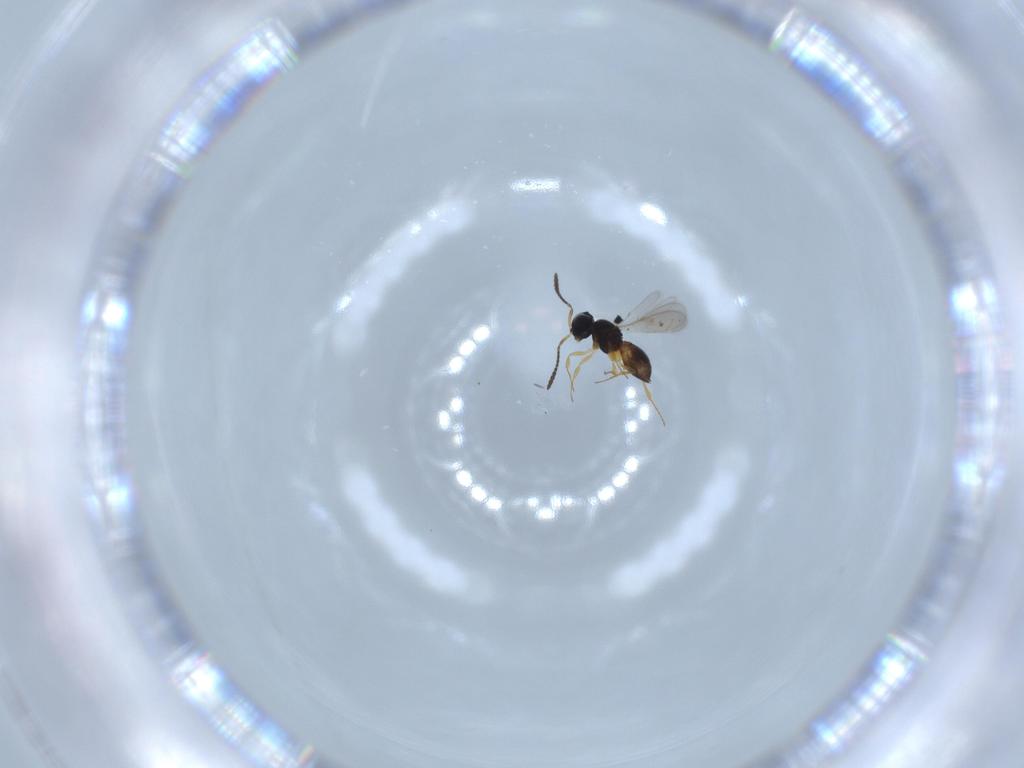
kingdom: Animalia
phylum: Arthropoda
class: Insecta
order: Hymenoptera
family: Scelionidae
